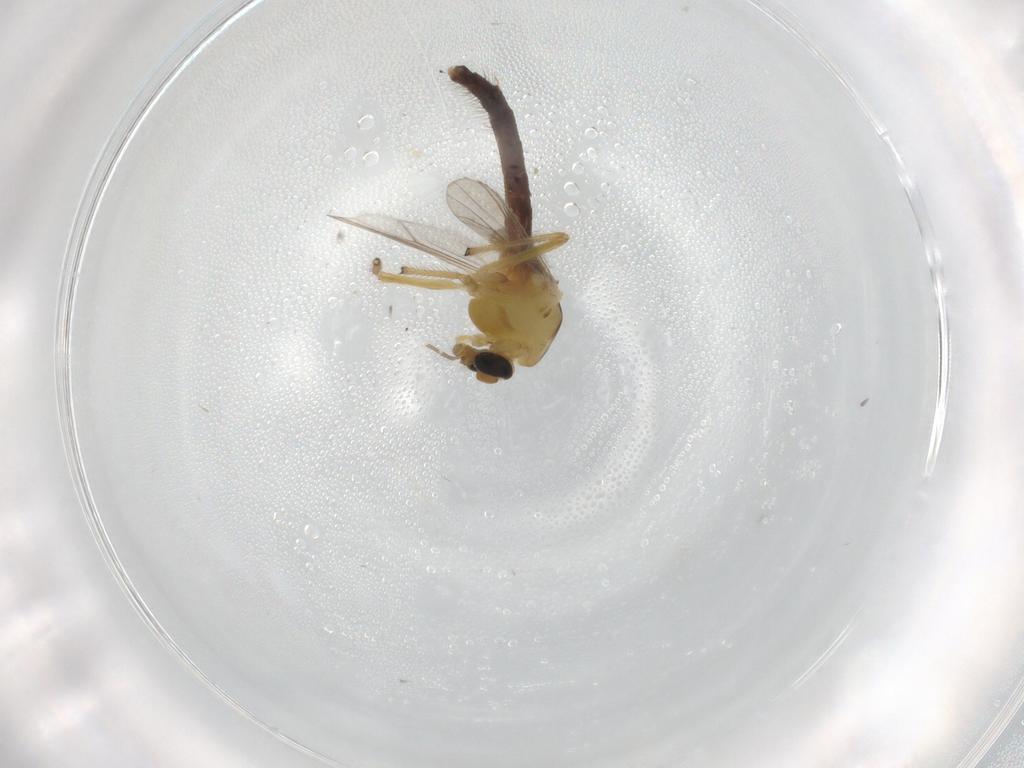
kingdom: Animalia
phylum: Arthropoda
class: Insecta
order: Diptera
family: Chironomidae
